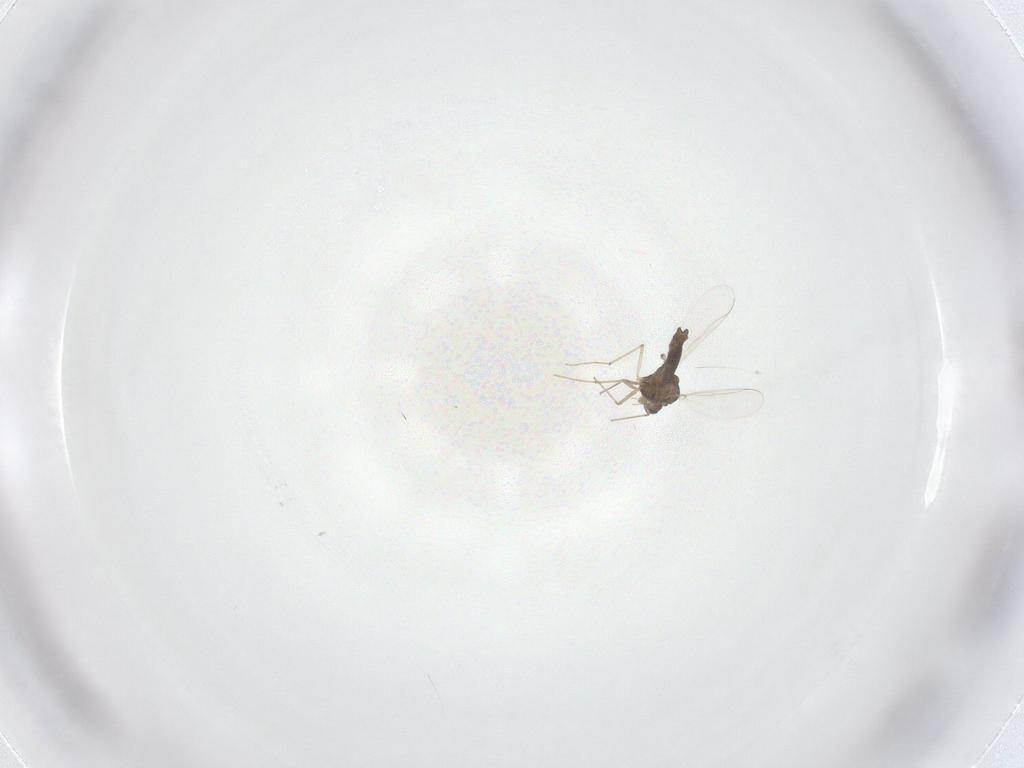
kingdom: Animalia
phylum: Arthropoda
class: Insecta
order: Diptera
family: Chironomidae
